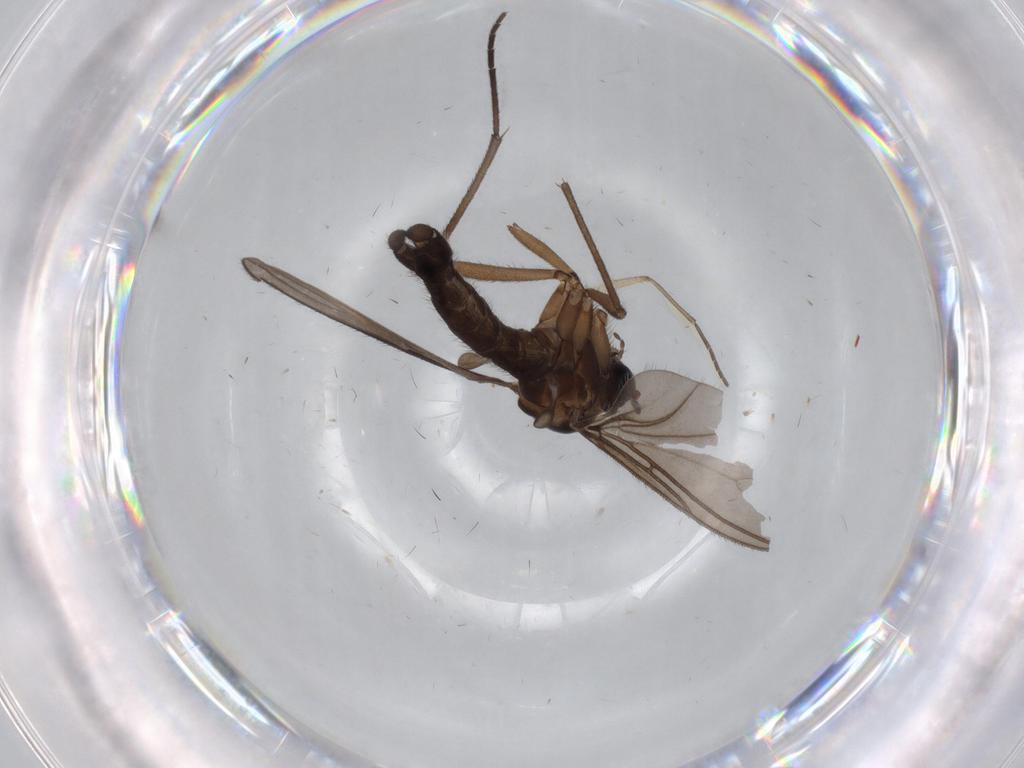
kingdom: Animalia
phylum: Arthropoda
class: Insecta
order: Diptera
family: Sciaridae
